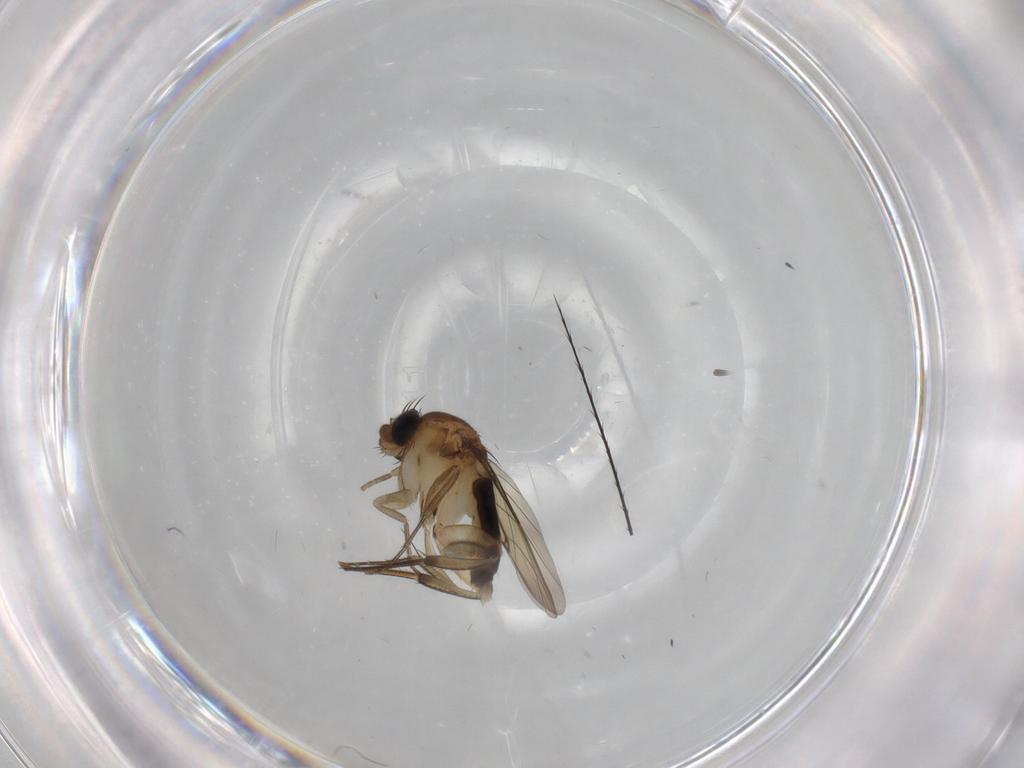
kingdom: Animalia
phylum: Arthropoda
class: Insecta
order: Diptera
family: Phoridae
